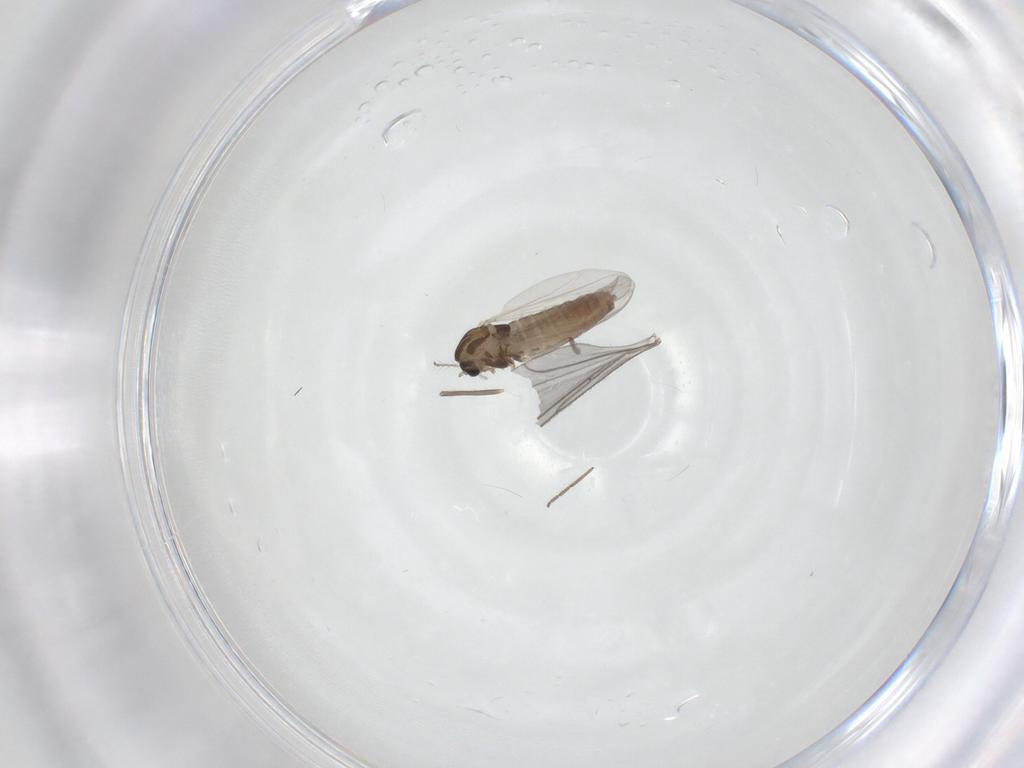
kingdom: Animalia
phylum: Arthropoda
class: Insecta
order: Diptera
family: Chironomidae
